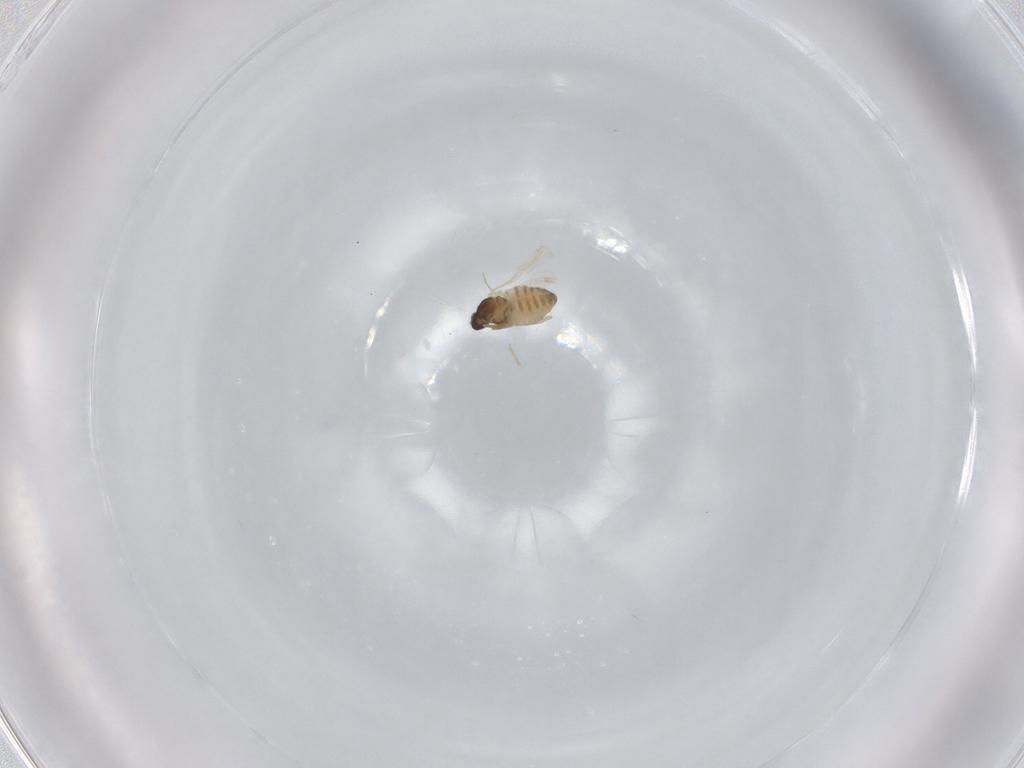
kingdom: Animalia
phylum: Arthropoda
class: Insecta
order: Diptera
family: Cecidomyiidae
